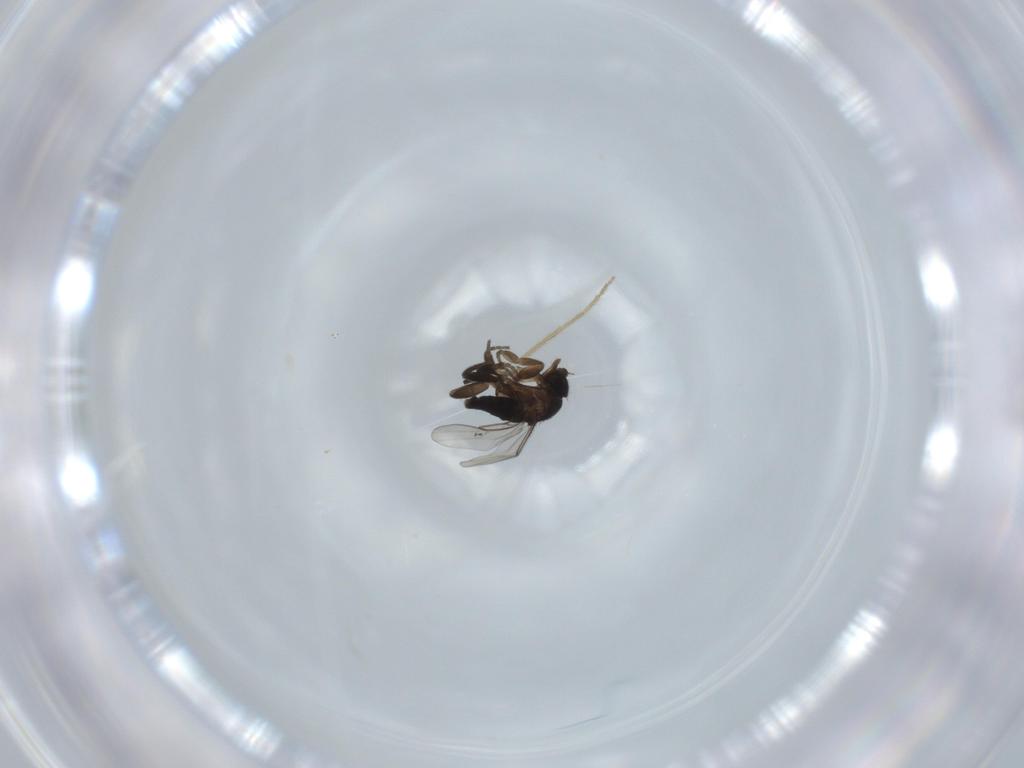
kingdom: Animalia
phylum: Arthropoda
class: Insecta
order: Diptera
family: Phoridae
